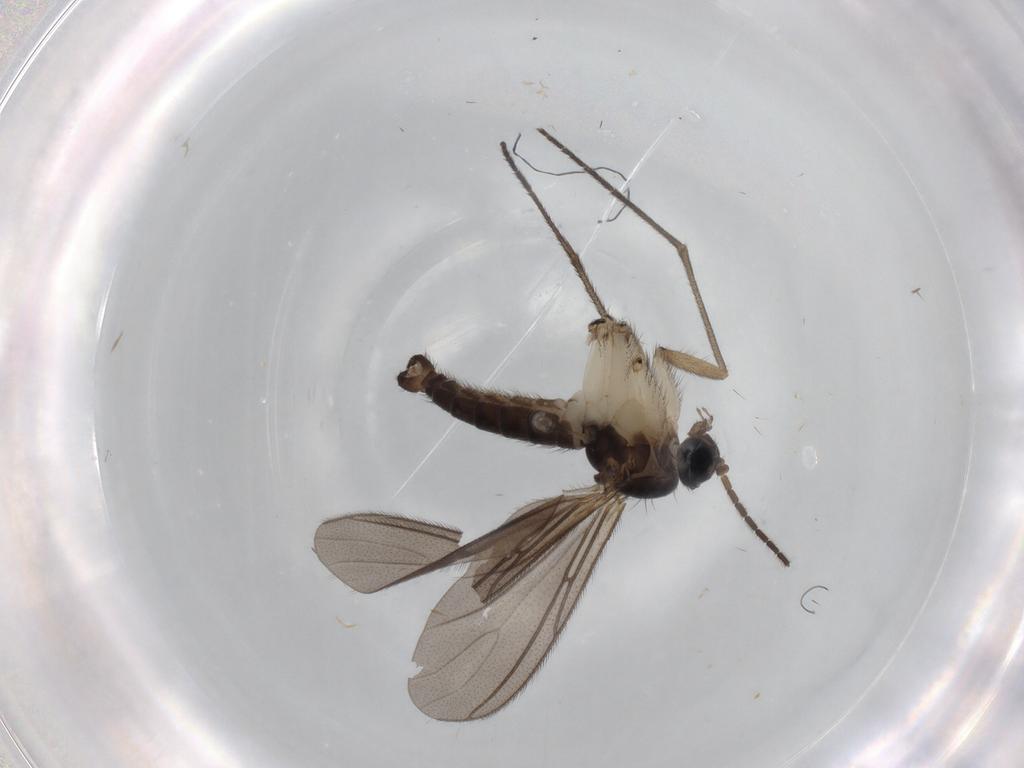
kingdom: Animalia
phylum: Arthropoda
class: Insecta
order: Diptera
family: Sciaridae
